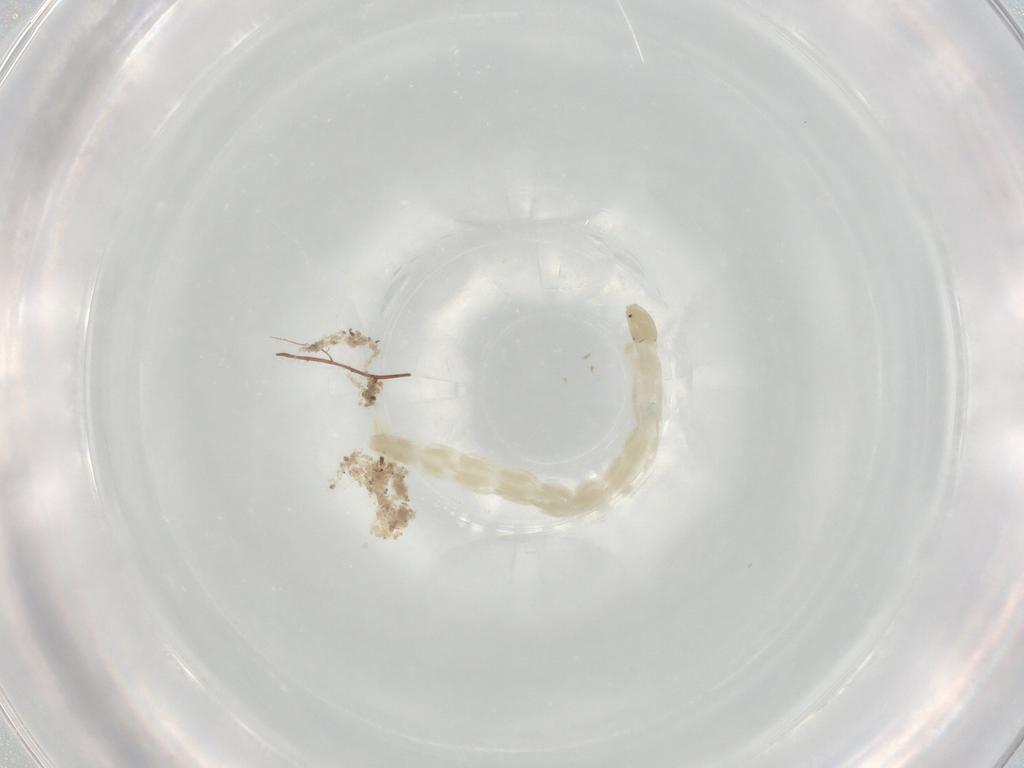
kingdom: Animalia
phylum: Arthropoda
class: Insecta
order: Diptera
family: Chironomidae
